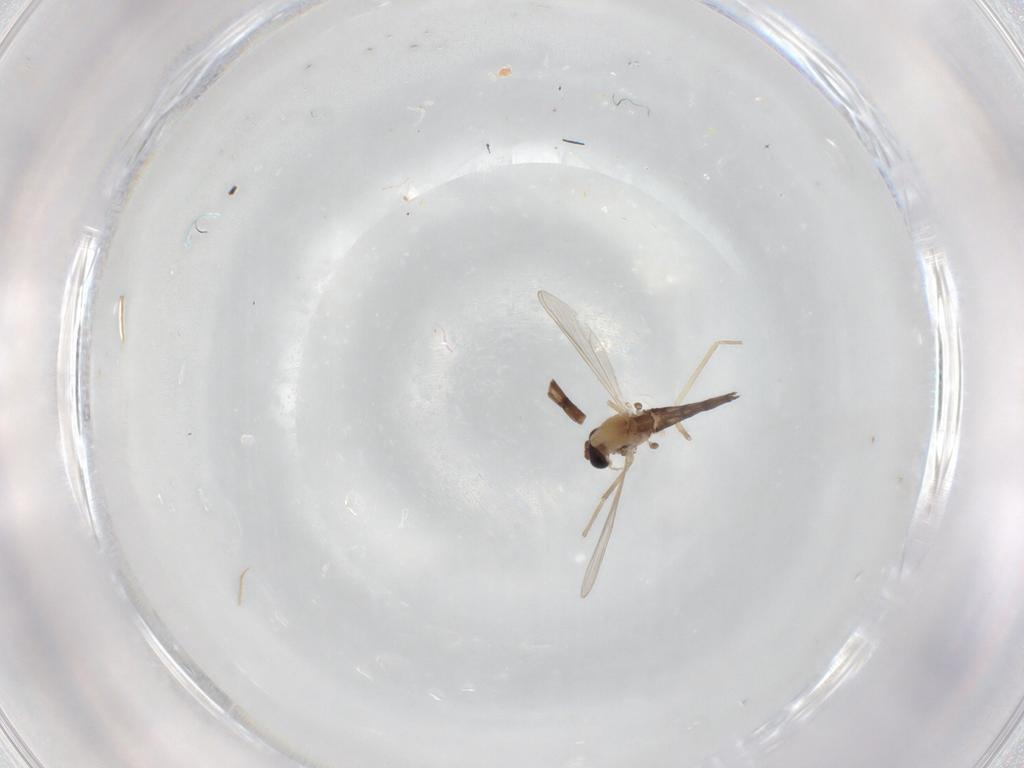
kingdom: Animalia
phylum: Arthropoda
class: Insecta
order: Diptera
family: Chironomidae
